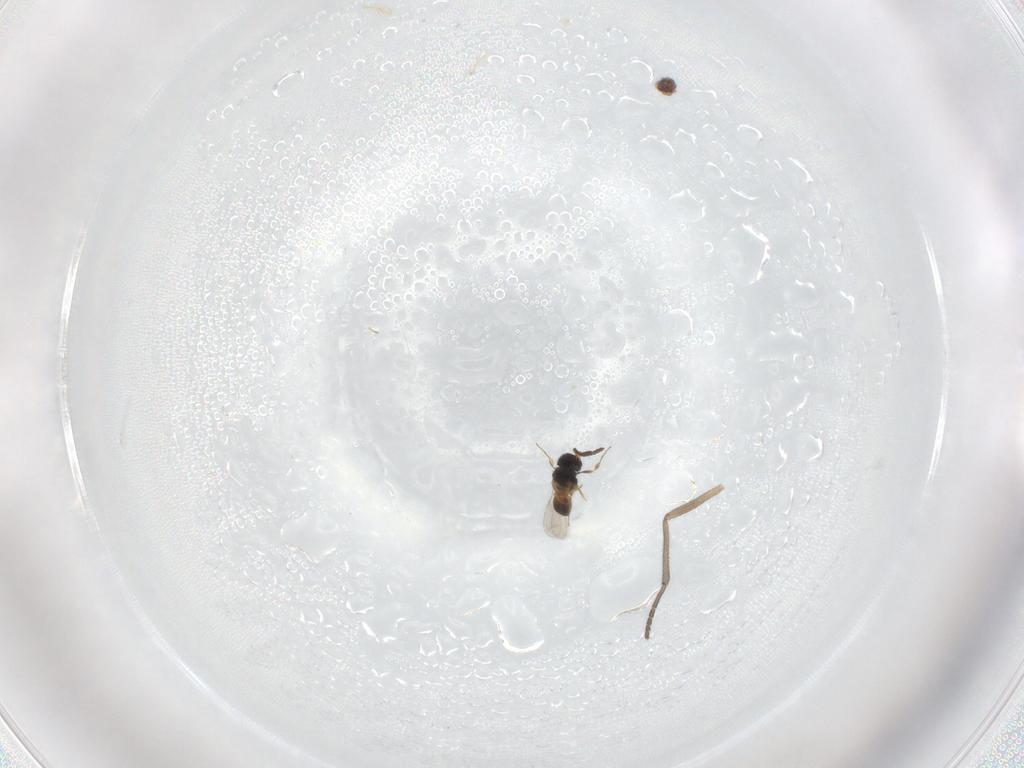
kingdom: Animalia
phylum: Arthropoda
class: Insecta
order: Hymenoptera
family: Scelionidae
